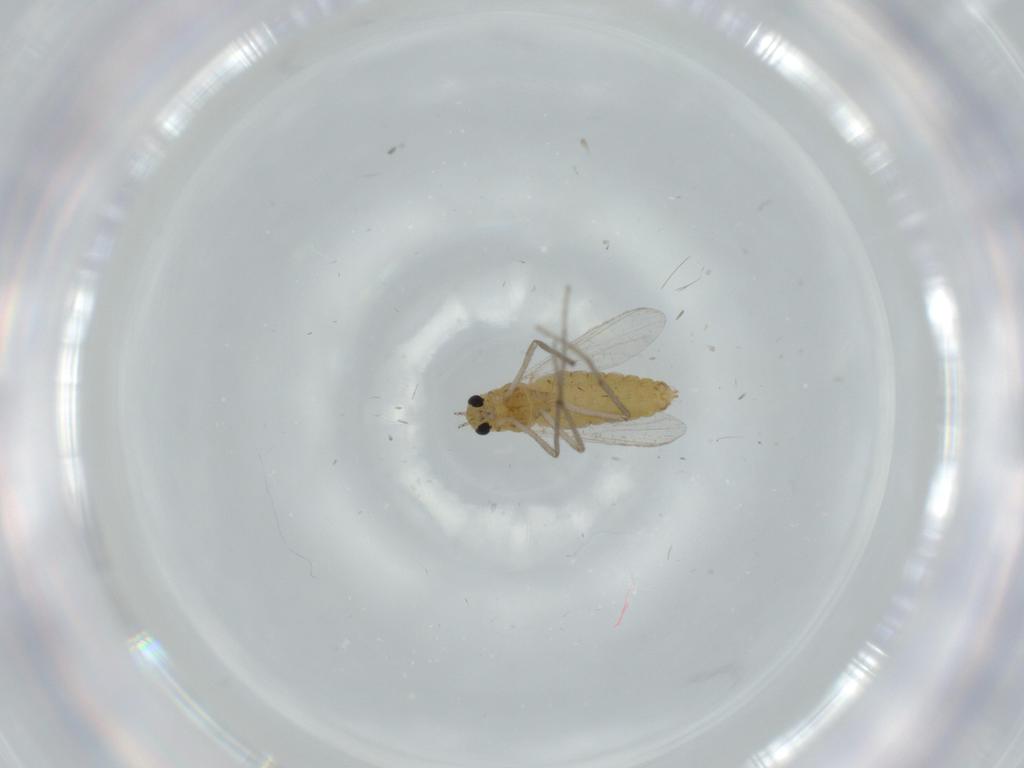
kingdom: Animalia
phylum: Arthropoda
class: Insecta
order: Diptera
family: Chironomidae
